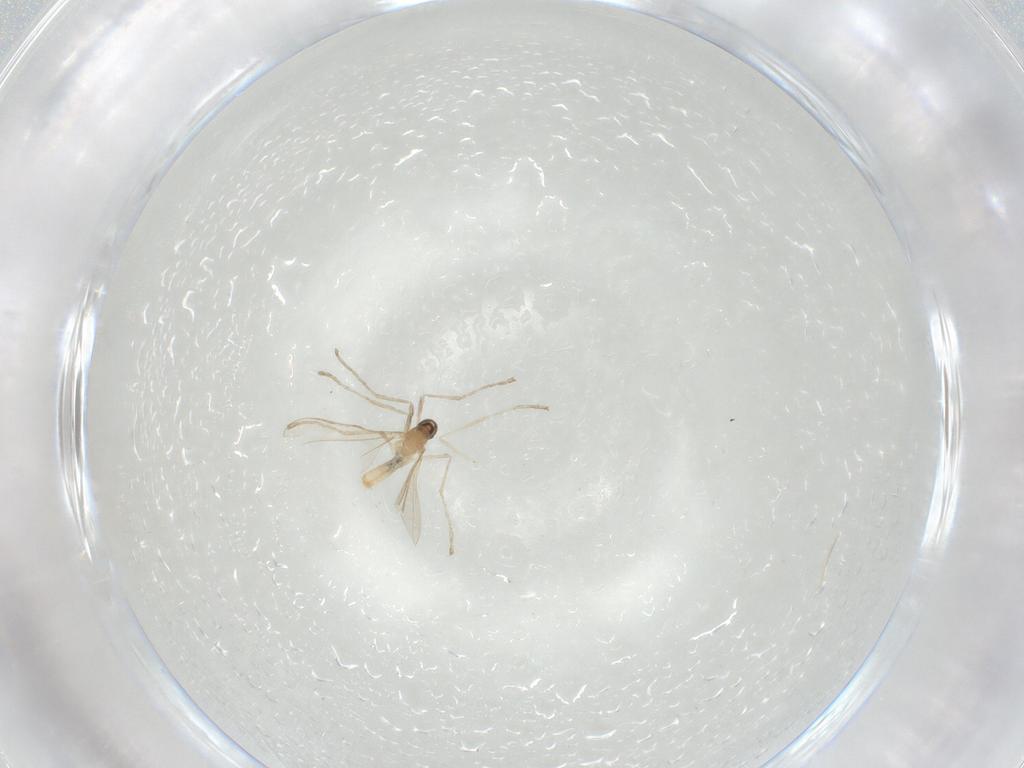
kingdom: Animalia
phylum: Arthropoda
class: Insecta
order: Diptera
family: Cecidomyiidae
